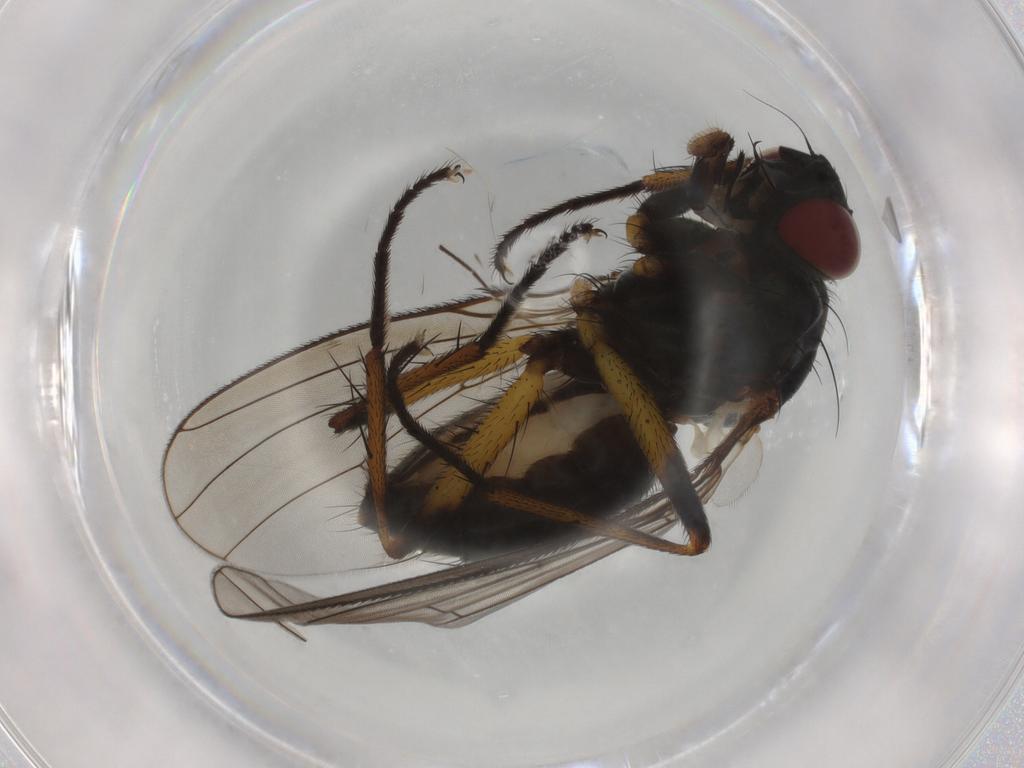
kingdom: Animalia
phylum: Arthropoda
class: Insecta
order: Diptera
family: Muscidae
